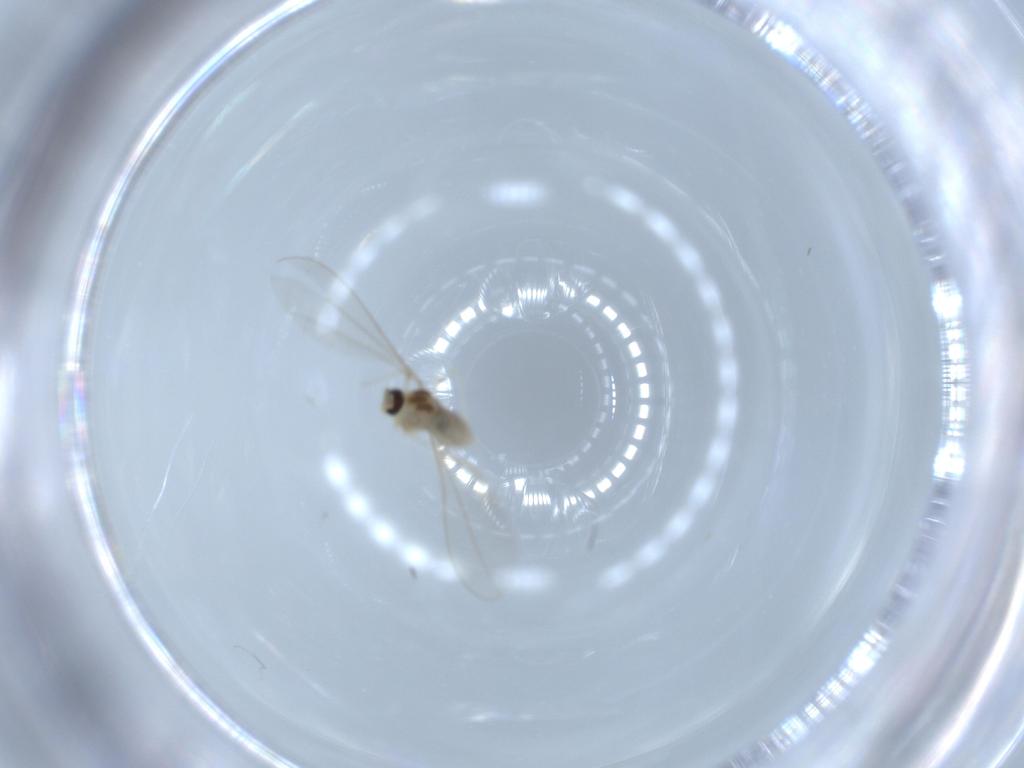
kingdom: Animalia
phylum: Arthropoda
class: Insecta
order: Diptera
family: Cecidomyiidae
